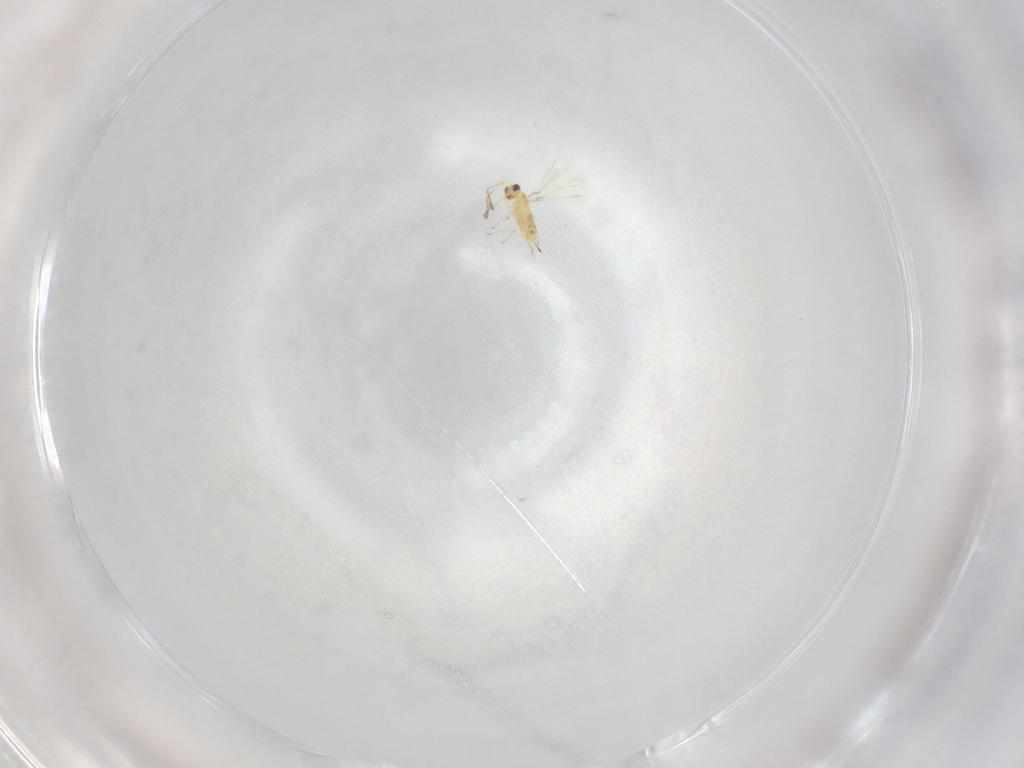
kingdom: Animalia
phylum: Arthropoda
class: Insecta
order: Hymenoptera
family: Mymaridae
